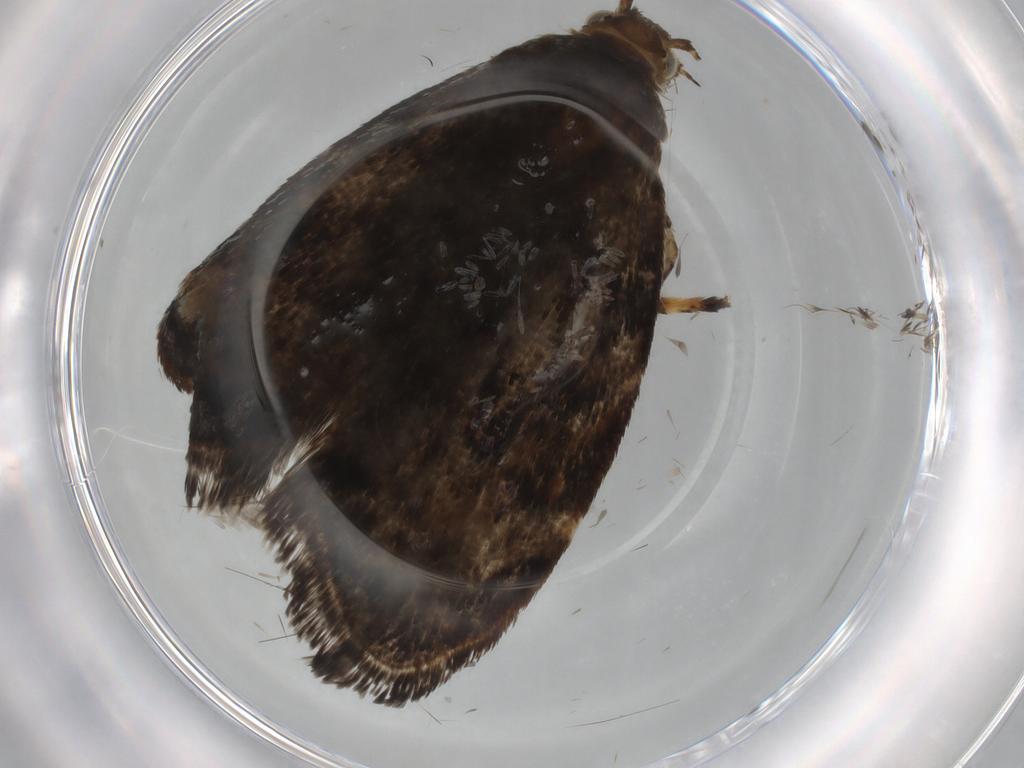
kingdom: Animalia
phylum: Arthropoda
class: Insecta
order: Lepidoptera
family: Choreutidae
